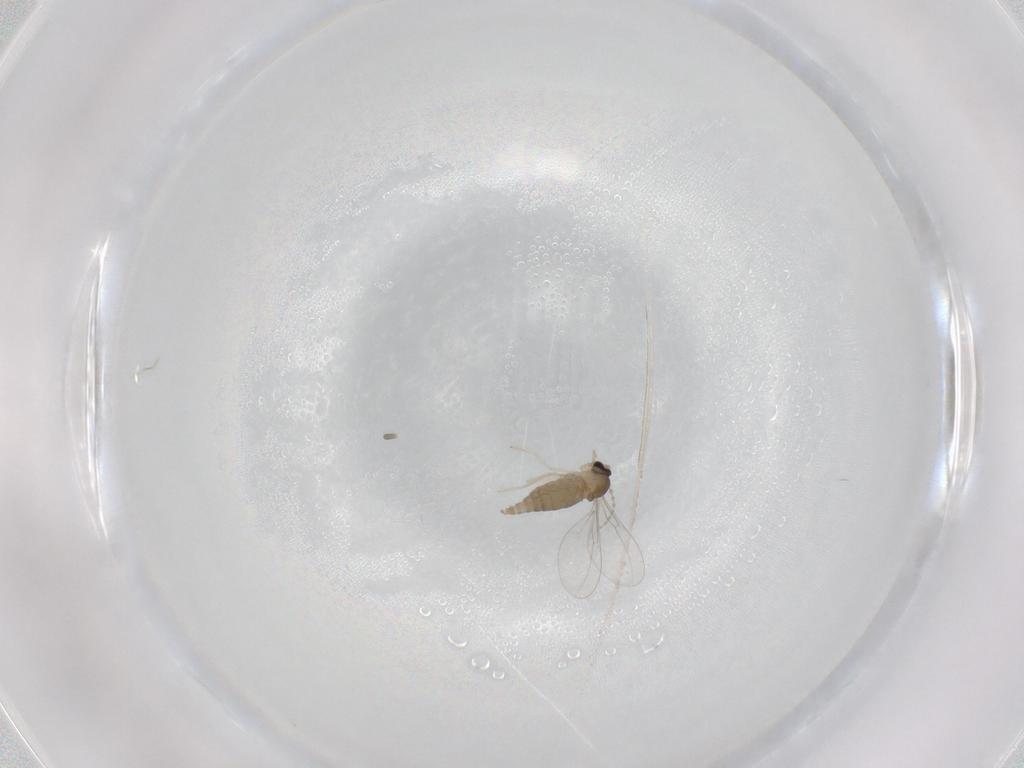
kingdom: Animalia
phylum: Arthropoda
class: Insecta
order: Diptera
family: Cecidomyiidae
